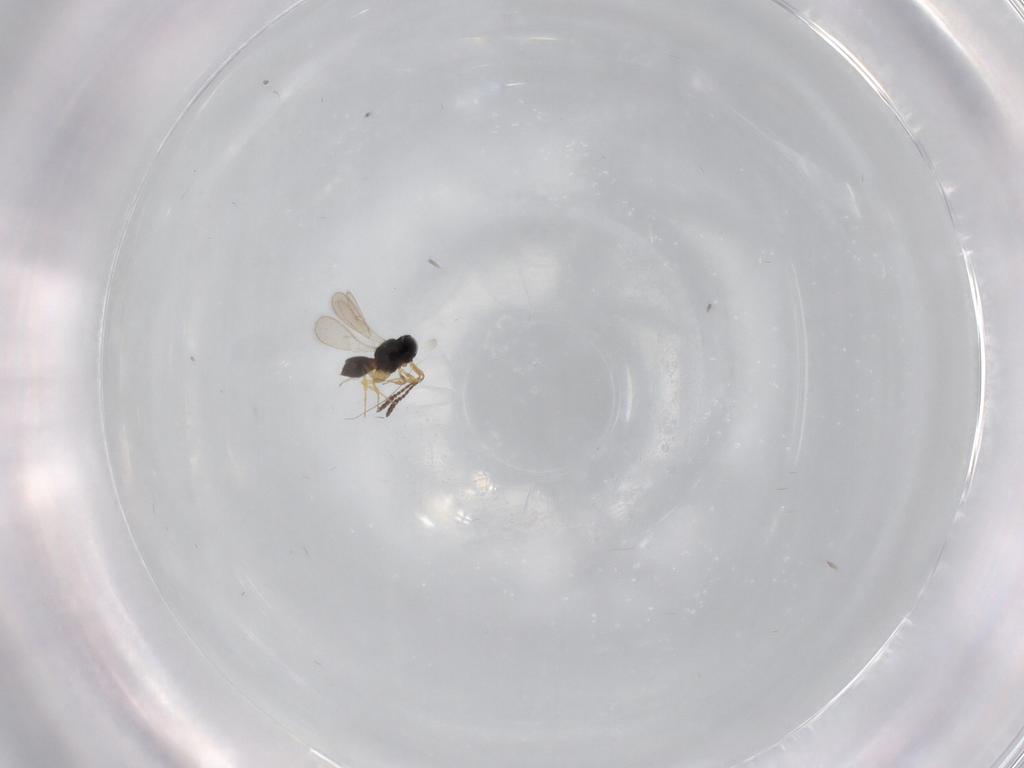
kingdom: Animalia
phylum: Arthropoda
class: Insecta
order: Hymenoptera
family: Scelionidae
